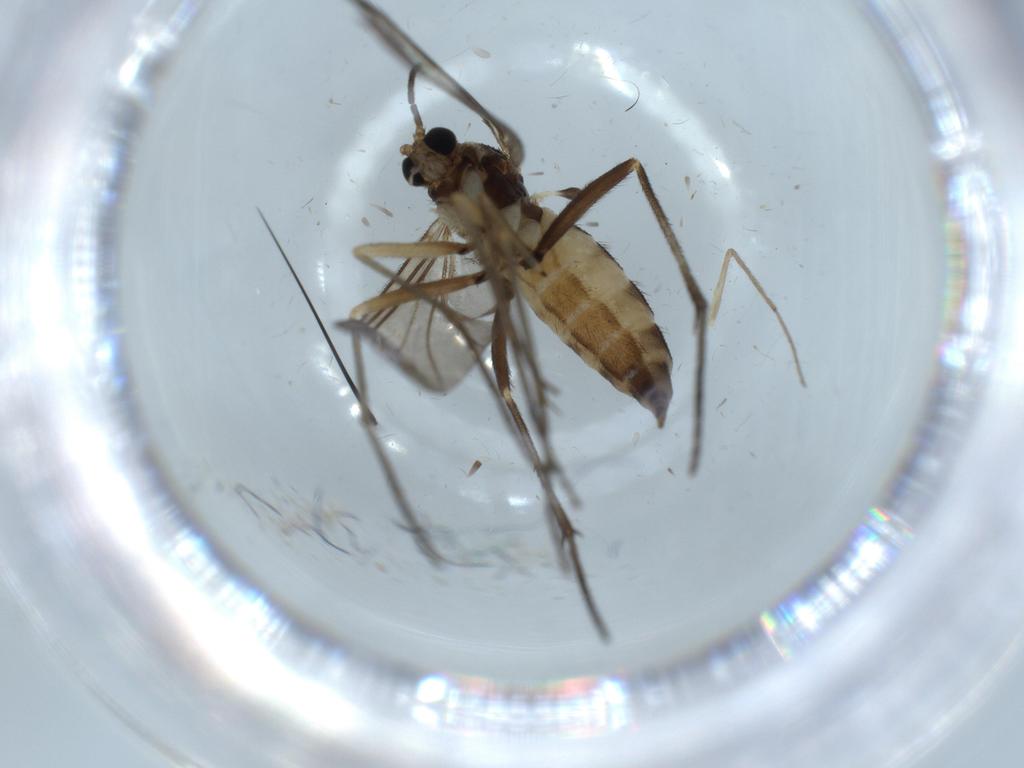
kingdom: Animalia
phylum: Arthropoda
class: Insecta
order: Diptera
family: Sciaridae
